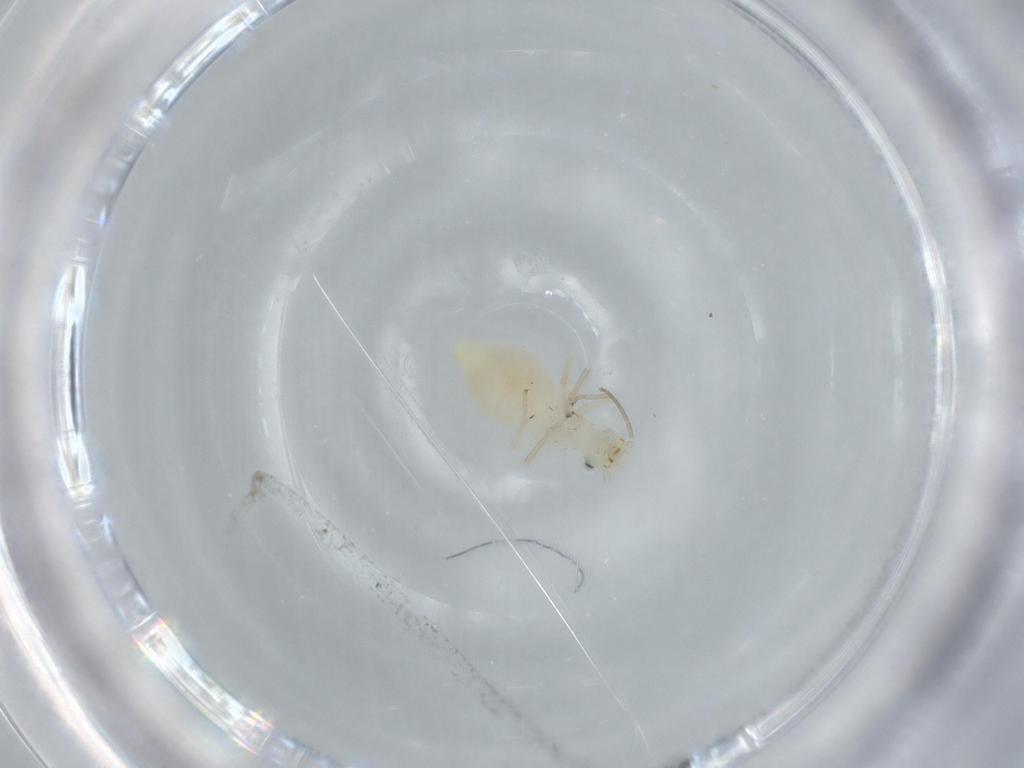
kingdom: Animalia
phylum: Arthropoda
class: Insecta
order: Psocodea
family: Caeciliusidae
